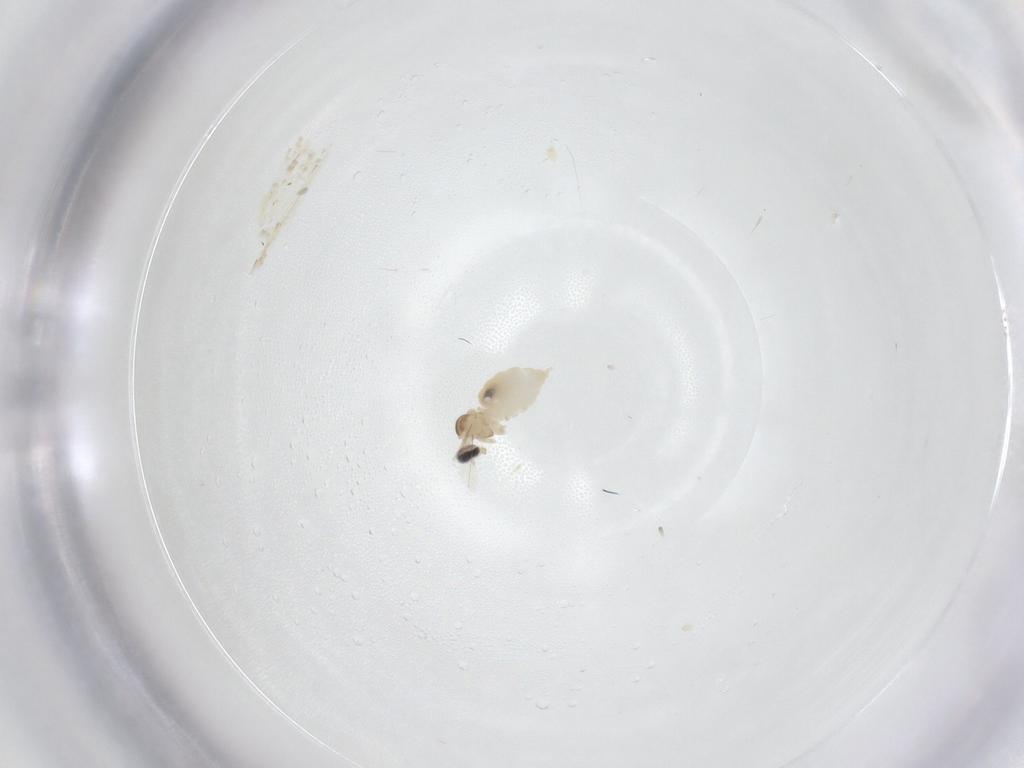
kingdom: Animalia
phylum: Arthropoda
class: Insecta
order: Diptera
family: Cecidomyiidae
